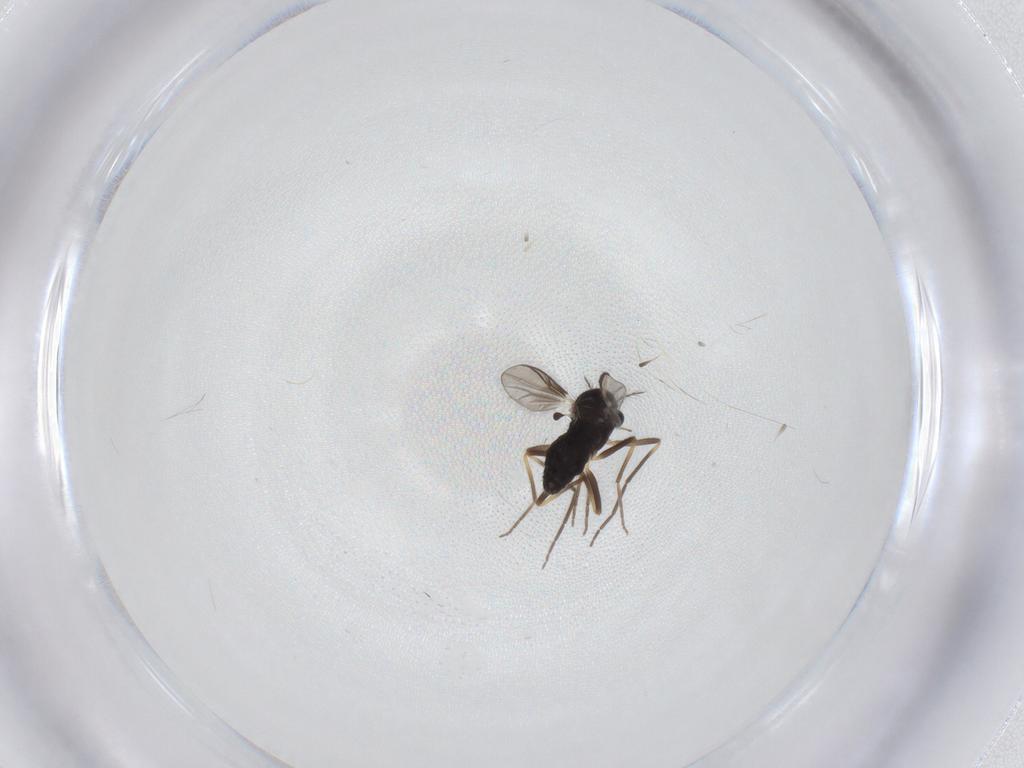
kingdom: Animalia
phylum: Arthropoda
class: Insecta
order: Diptera
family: Chironomidae
